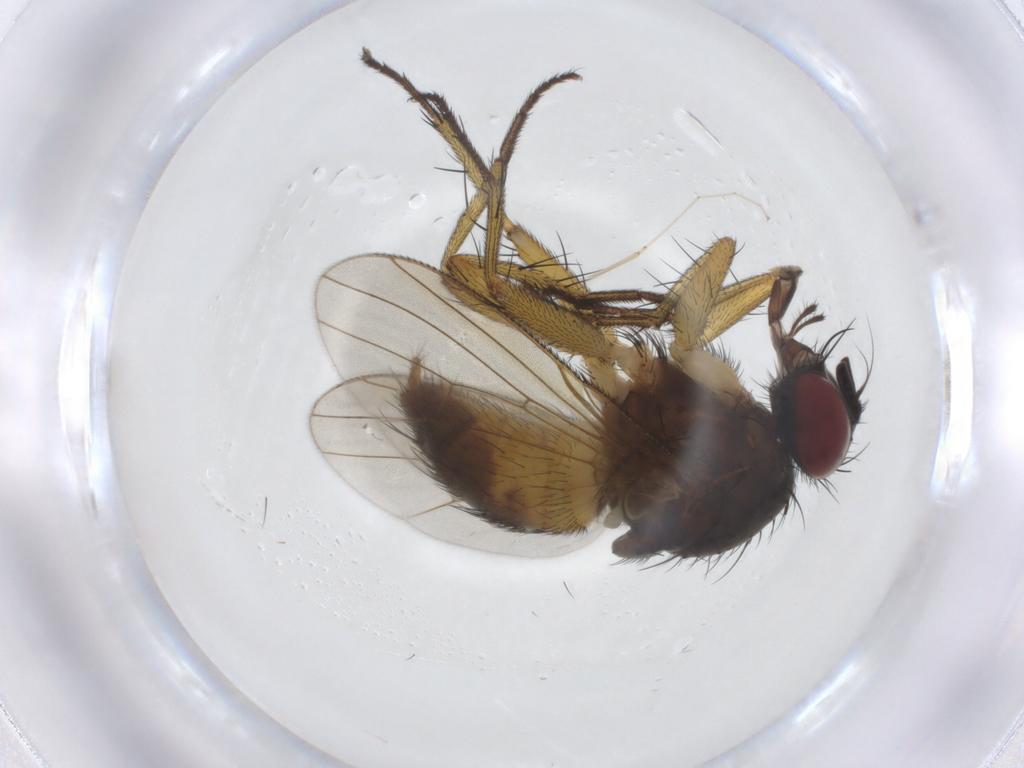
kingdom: Animalia
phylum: Arthropoda
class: Insecta
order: Diptera
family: Muscidae
